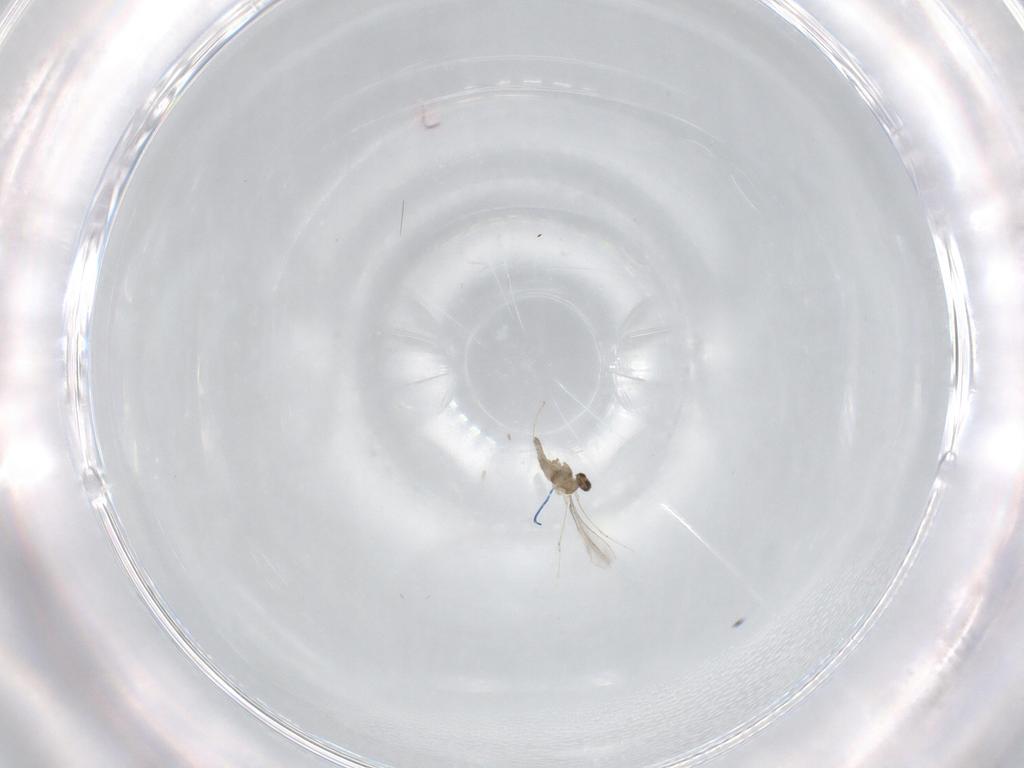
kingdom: Animalia
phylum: Arthropoda
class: Insecta
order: Diptera
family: Cecidomyiidae
